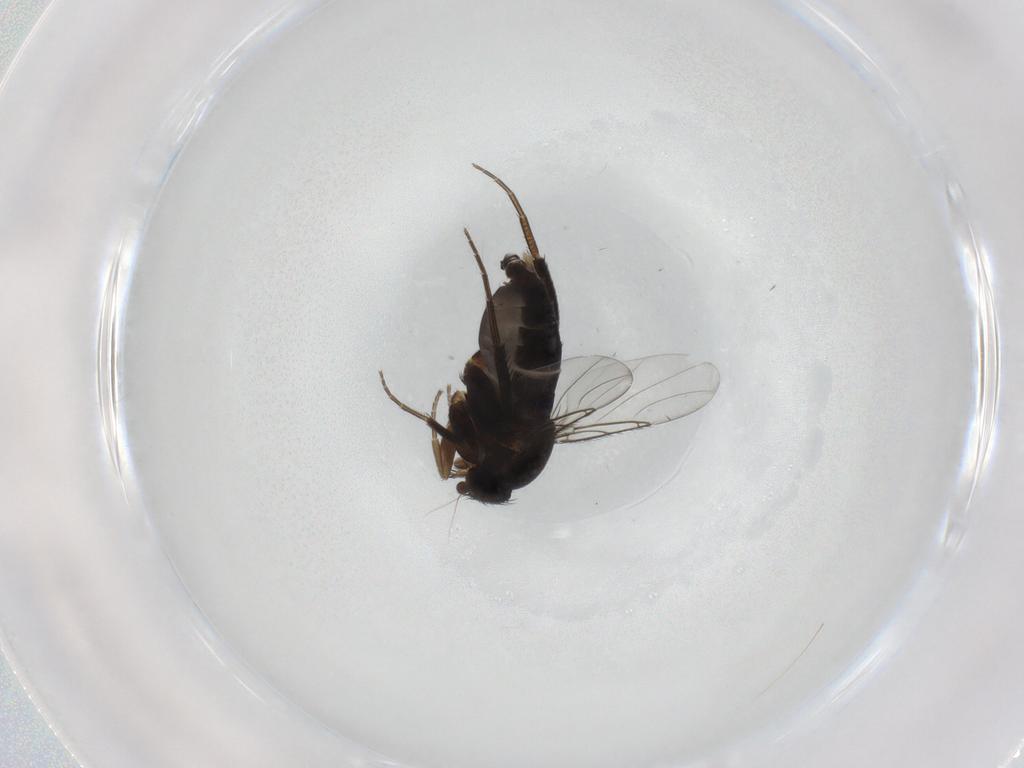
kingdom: Animalia
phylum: Arthropoda
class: Insecta
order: Diptera
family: Phoridae
